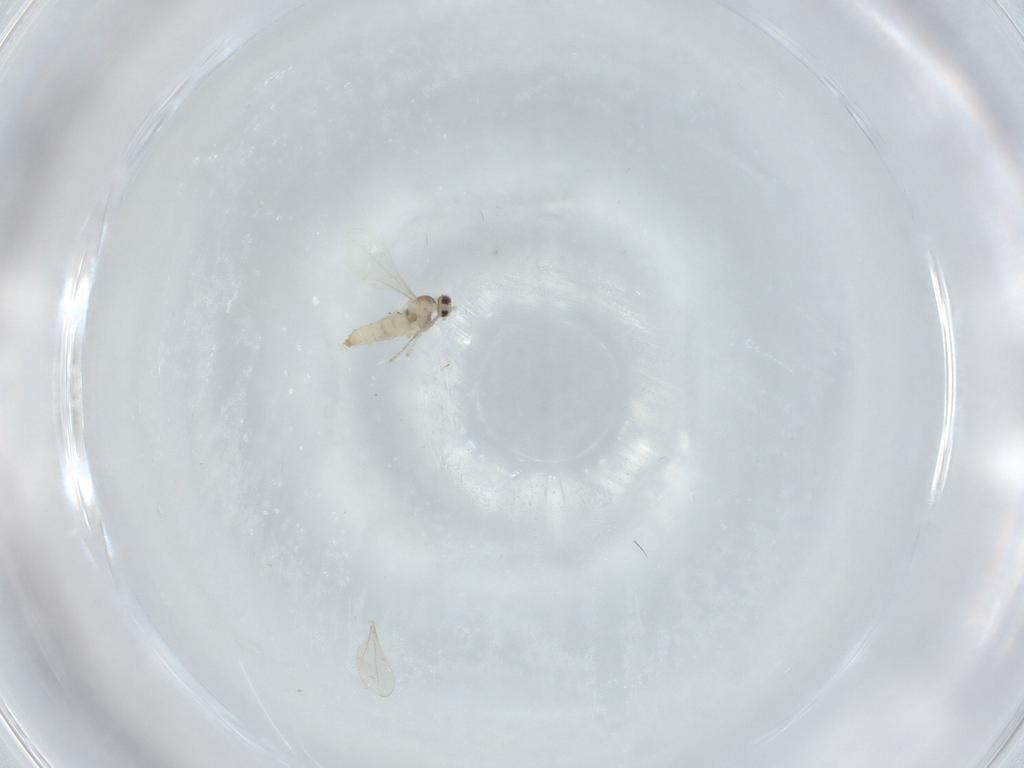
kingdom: Animalia
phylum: Arthropoda
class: Insecta
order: Diptera
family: Cecidomyiidae
